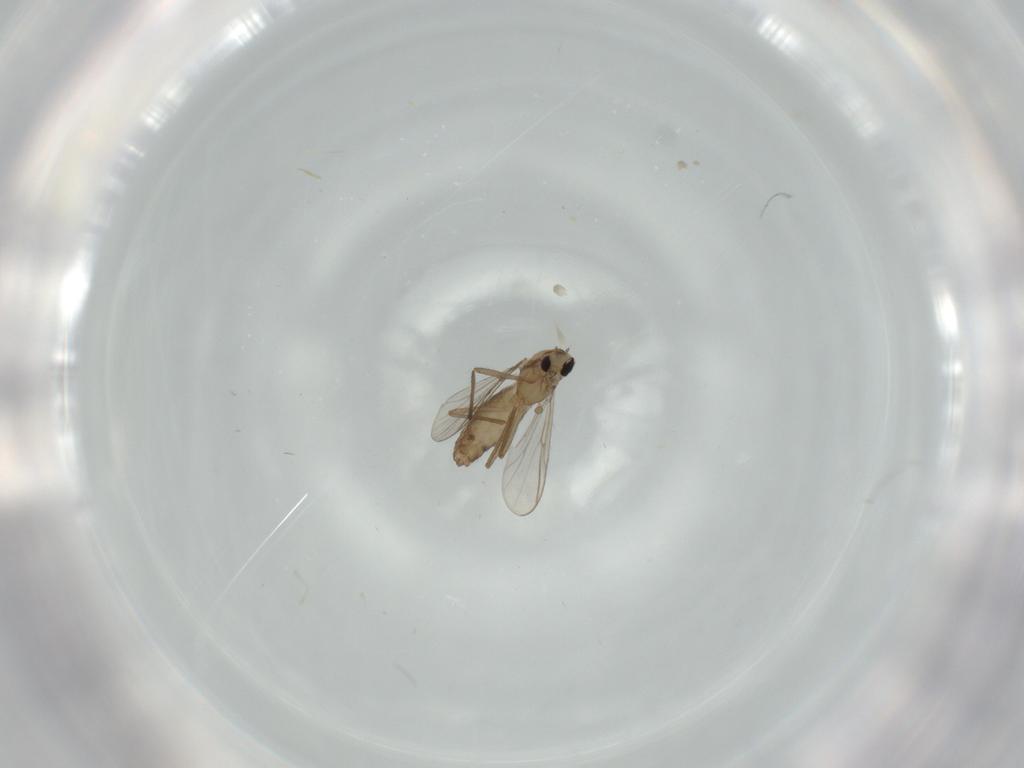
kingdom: Animalia
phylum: Arthropoda
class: Insecta
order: Diptera
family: Chironomidae
